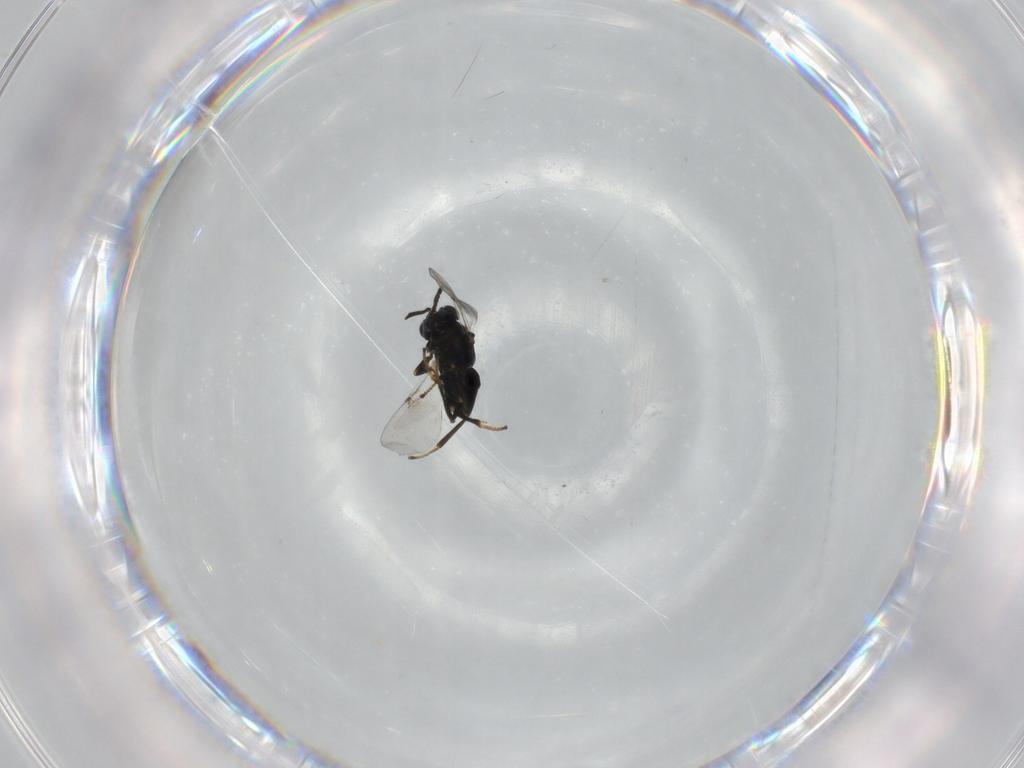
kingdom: Animalia
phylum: Arthropoda
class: Insecta
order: Hymenoptera
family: Encyrtidae
